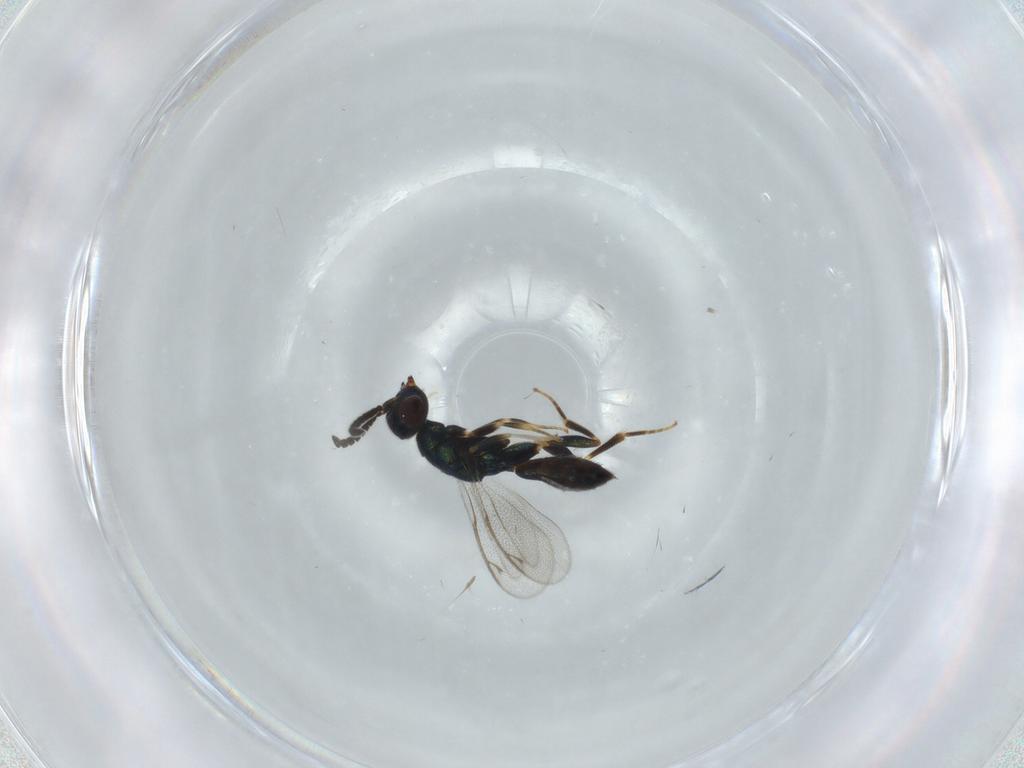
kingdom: Animalia
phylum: Arthropoda
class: Insecta
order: Hymenoptera
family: Cleonyminae
